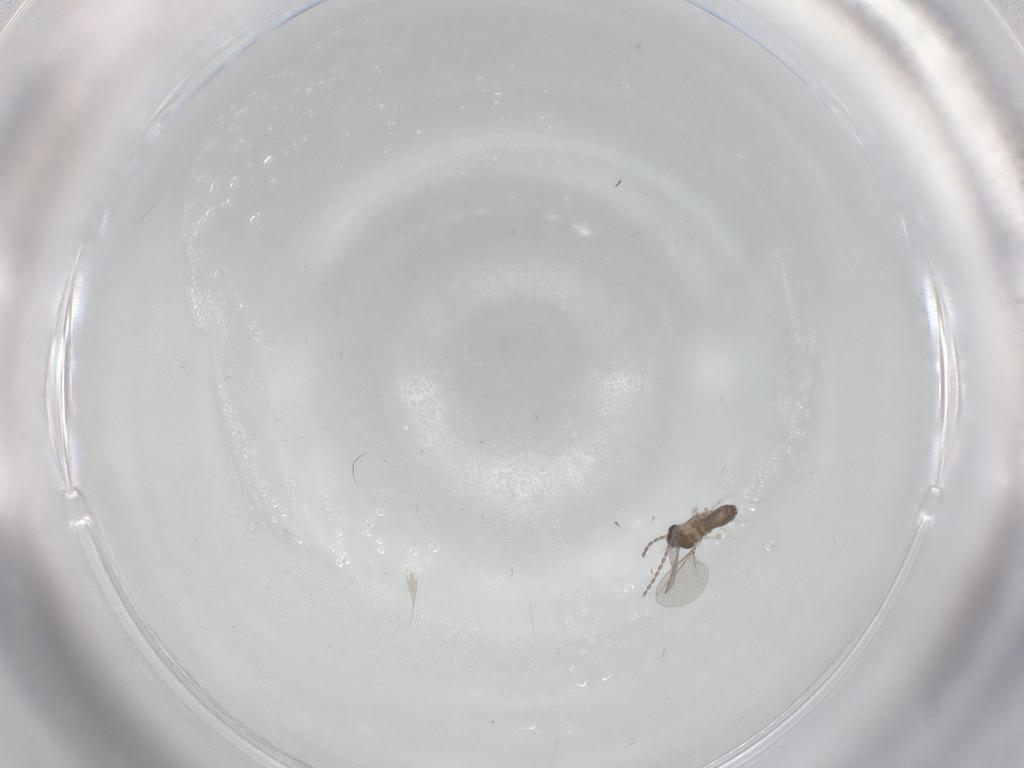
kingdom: Animalia
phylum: Arthropoda
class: Insecta
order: Diptera
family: Cecidomyiidae
